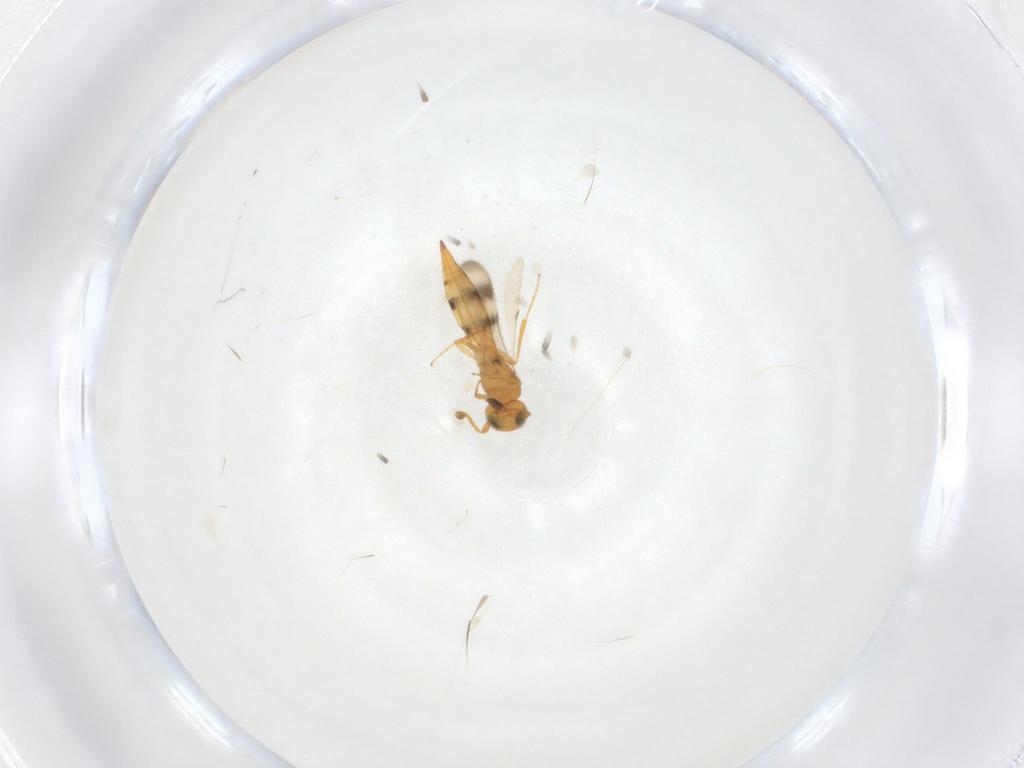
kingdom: Animalia
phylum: Arthropoda
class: Insecta
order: Hymenoptera
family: Scelionidae
